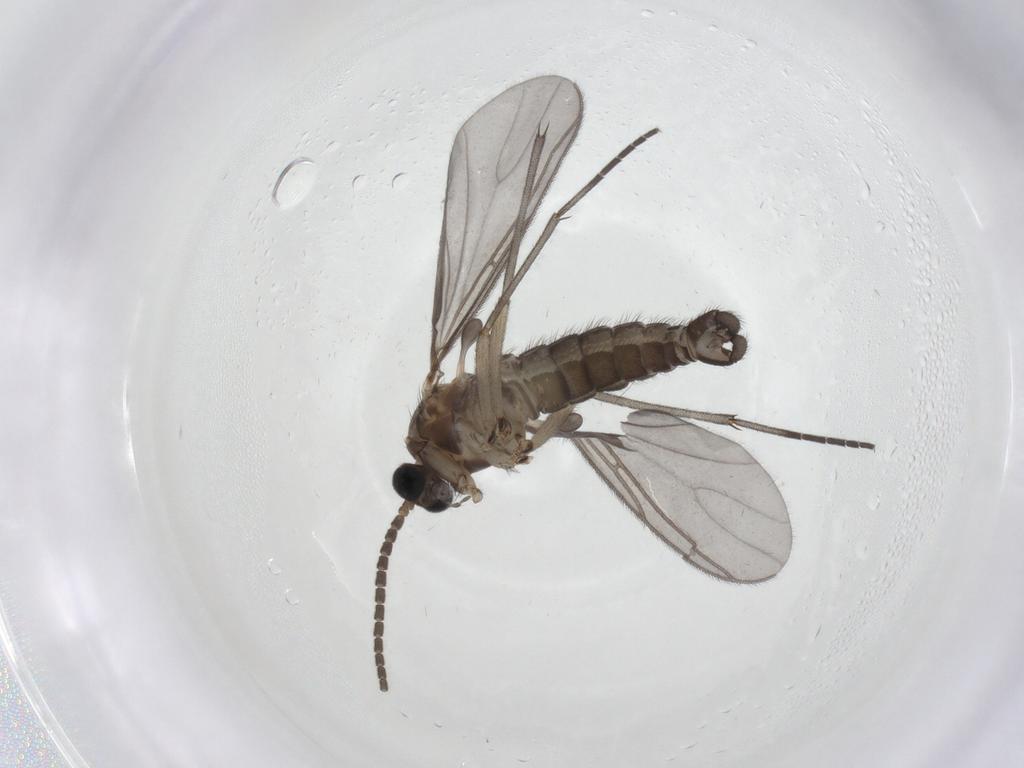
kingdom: Animalia
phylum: Arthropoda
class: Insecta
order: Diptera
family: Sciaridae
